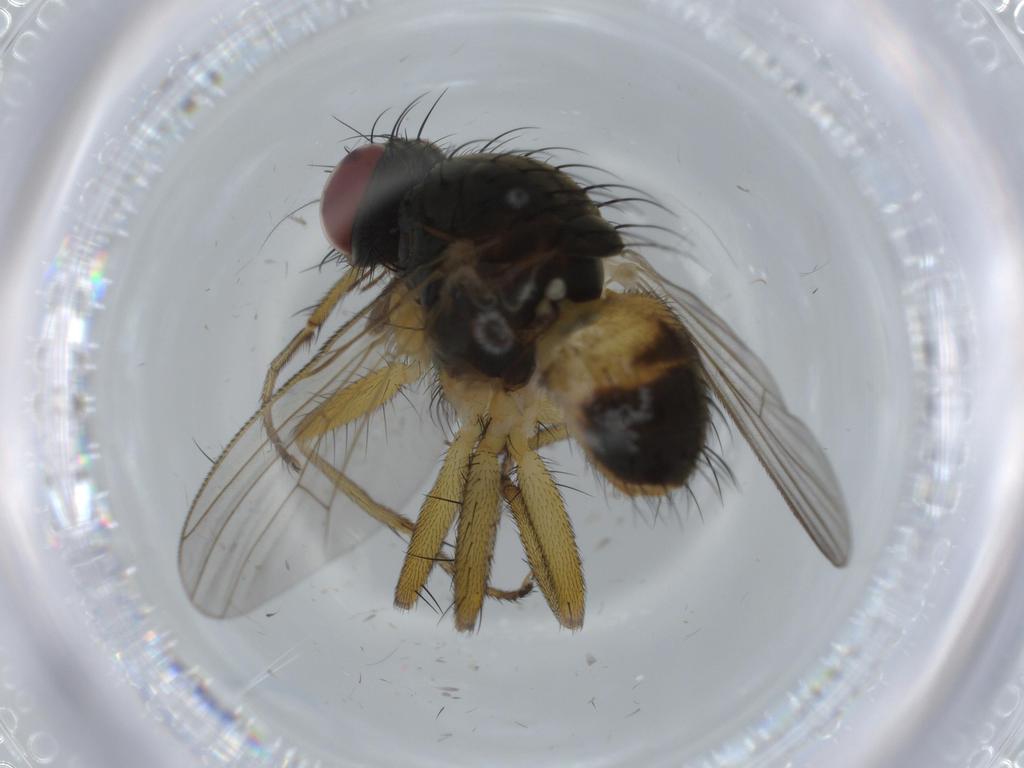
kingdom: Animalia
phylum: Arthropoda
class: Insecta
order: Diptera
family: Muscidae
